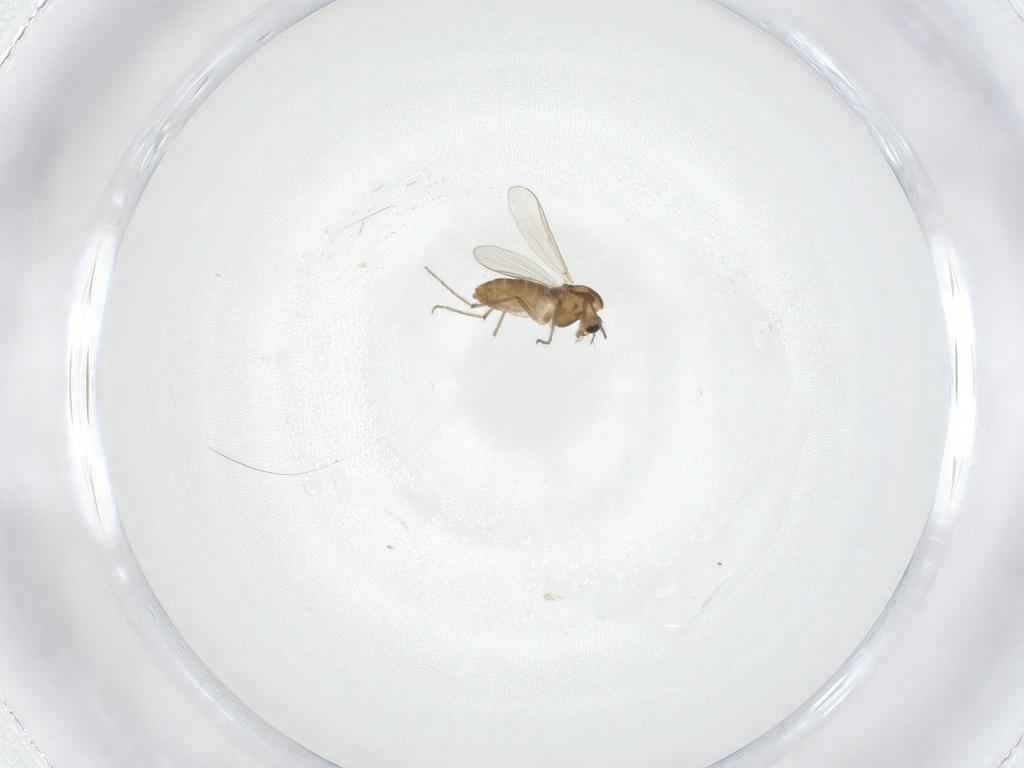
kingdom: Animalia
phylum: Arthropoda
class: Insecta
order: Diptera
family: Chironomidae
